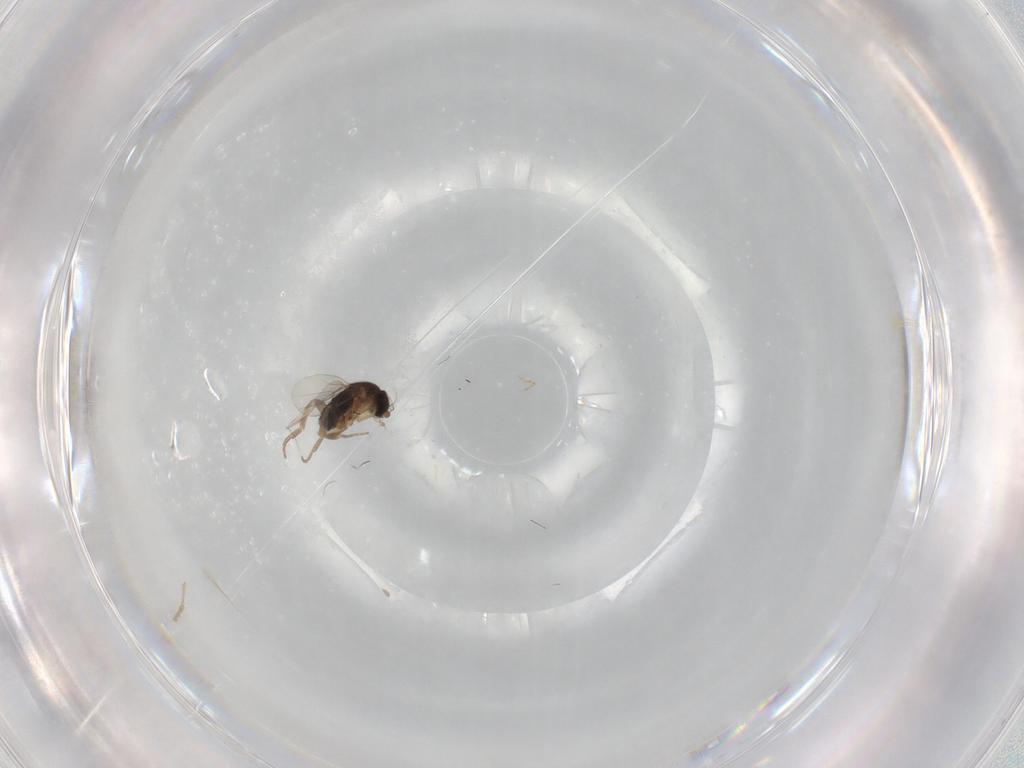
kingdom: Animalia
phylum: Arthropoda
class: Insecta
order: Diptera
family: Phoridae
